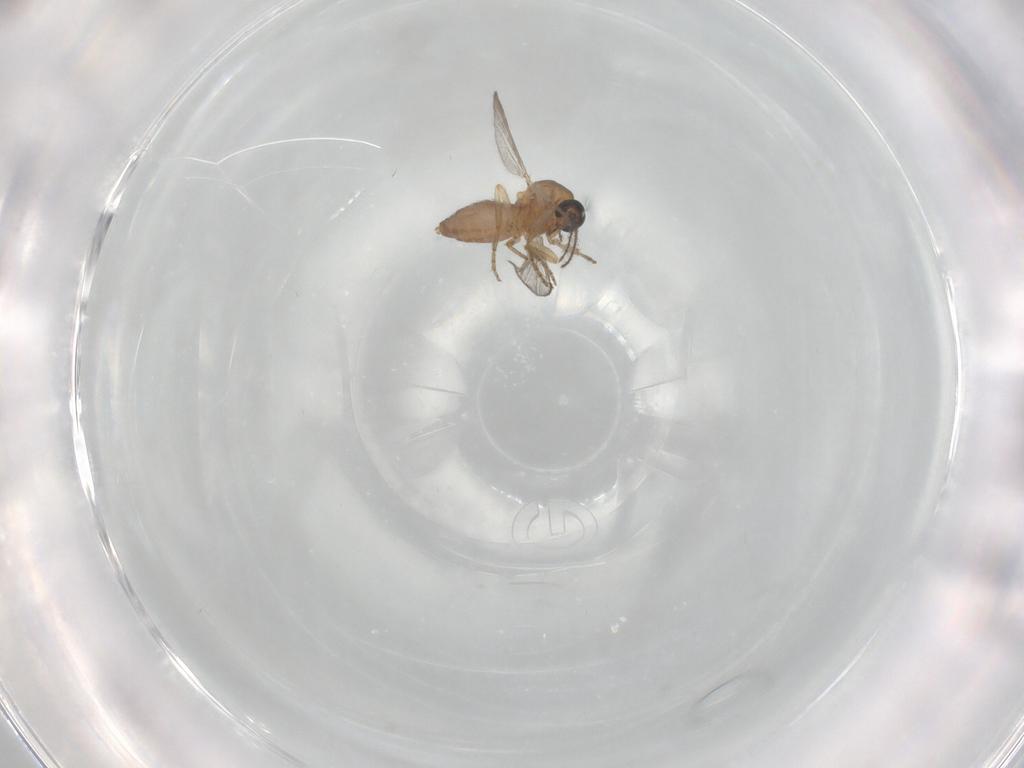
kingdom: Animalia
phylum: Arthropoda
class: Insecta
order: Diptera
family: Ceratopogonidae
